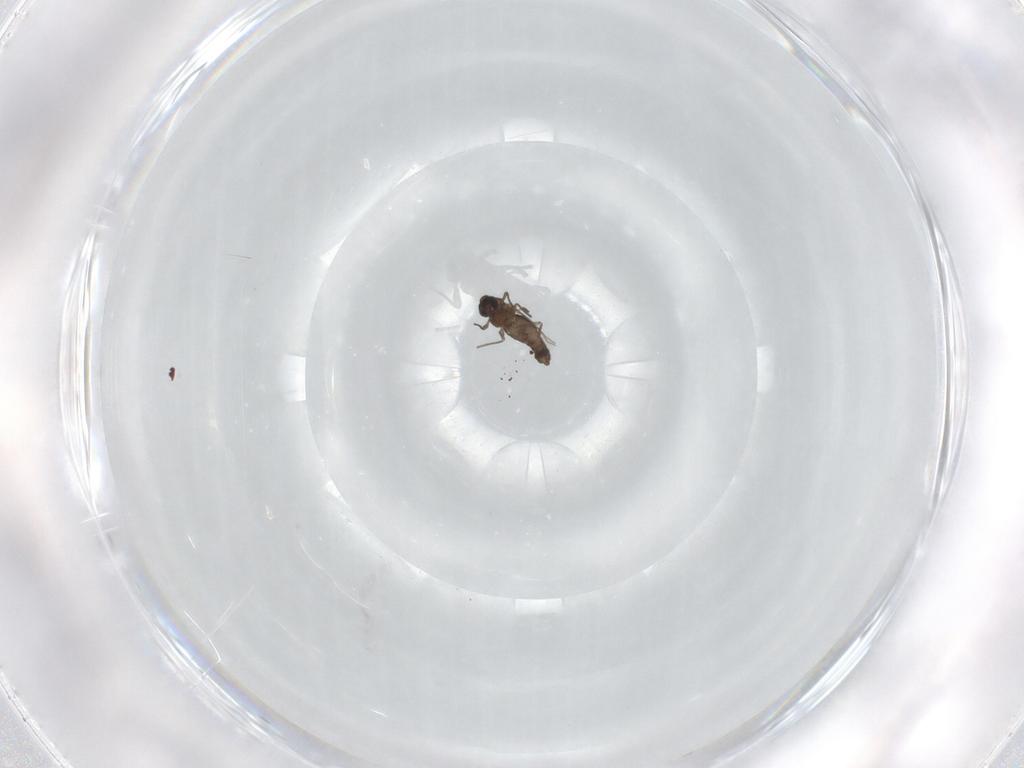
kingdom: Animalia
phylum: Arthropoda
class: Insecta
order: Diptera
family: Chironomidae
